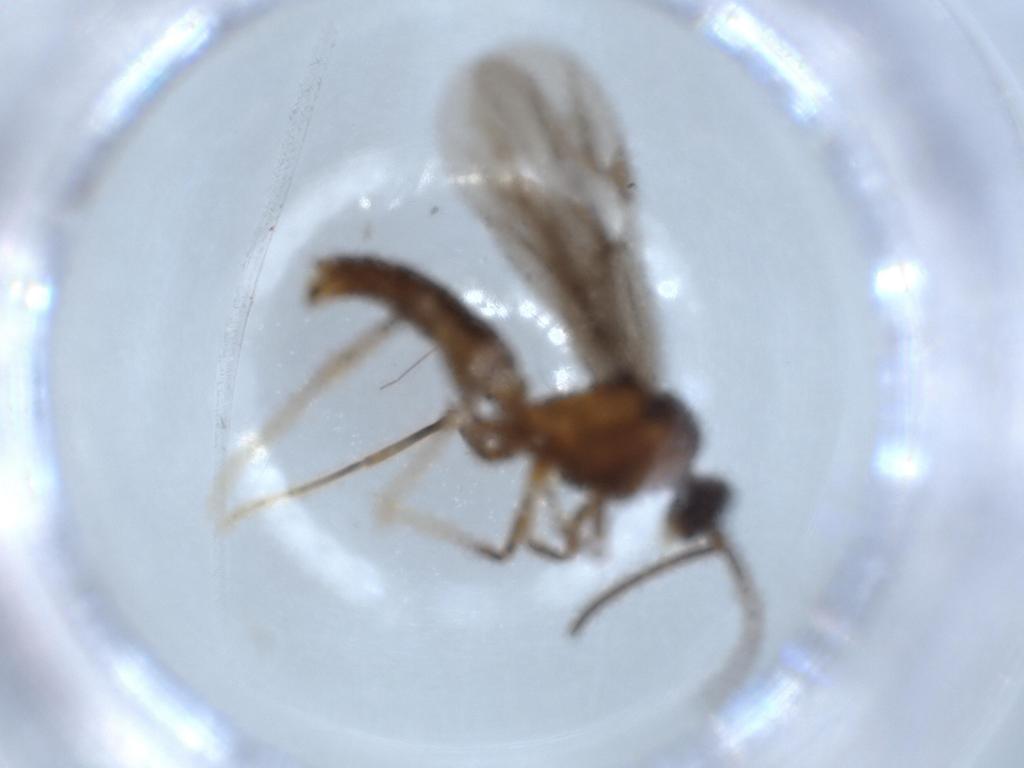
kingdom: Animalia
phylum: Arthropoda
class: Insecta
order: Hymenoptera
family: Formicidae
